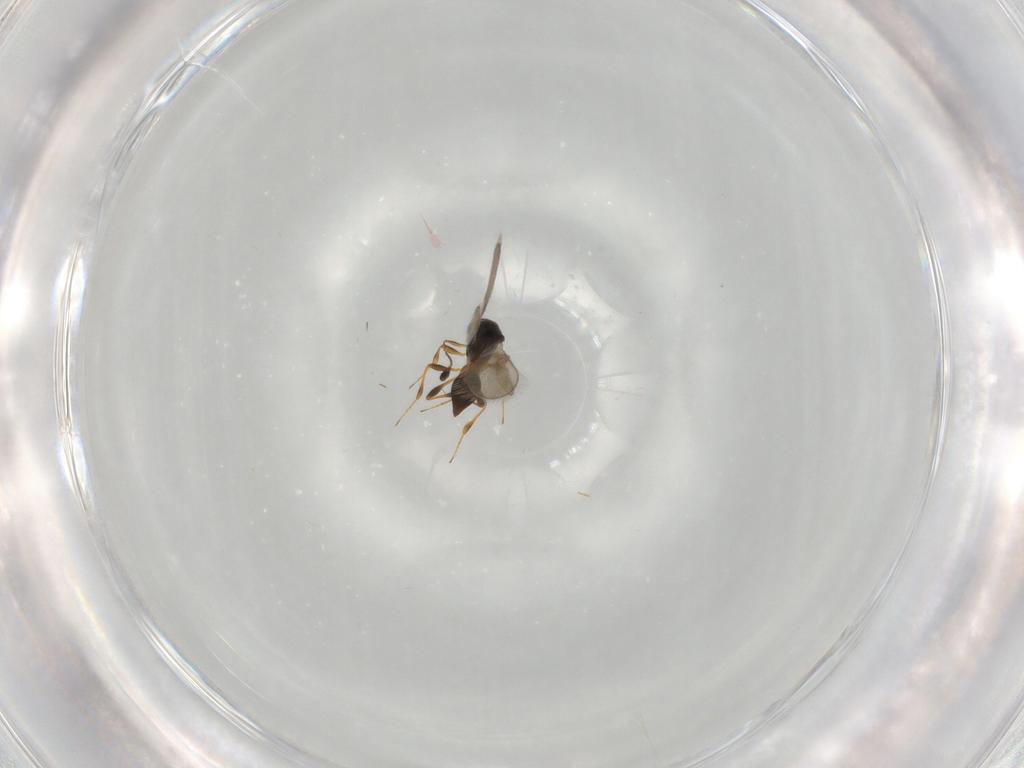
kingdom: Animalia
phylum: Arthropoda
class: Insecta
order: Hymenoptera
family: Platygastridae
